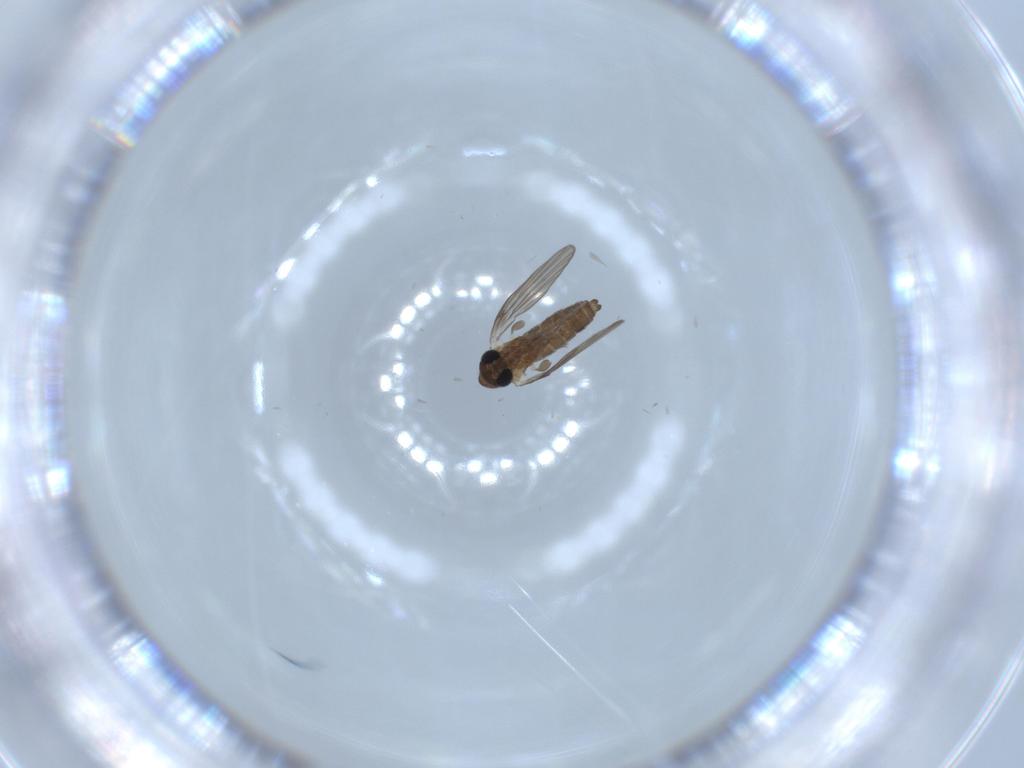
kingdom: Animalia
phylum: Arthropoda
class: Insecta
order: Diptera
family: Psychodidae
